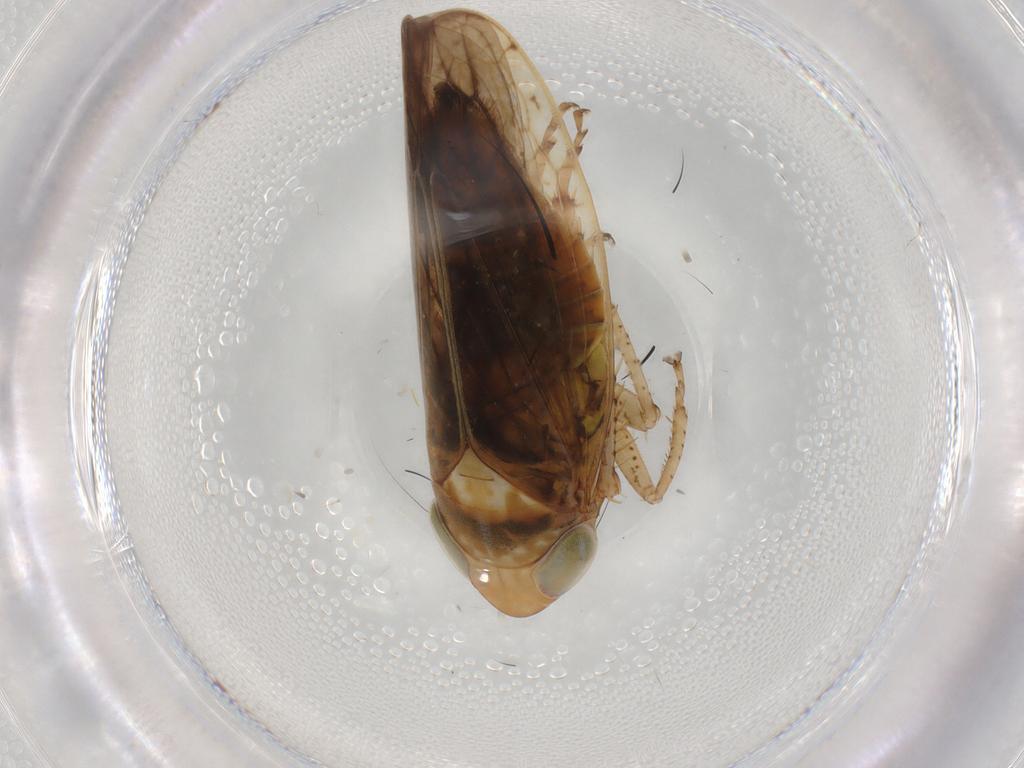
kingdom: Animalia
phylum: Arthropoda
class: Insecta
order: Hemiptera
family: Cicadellidae
